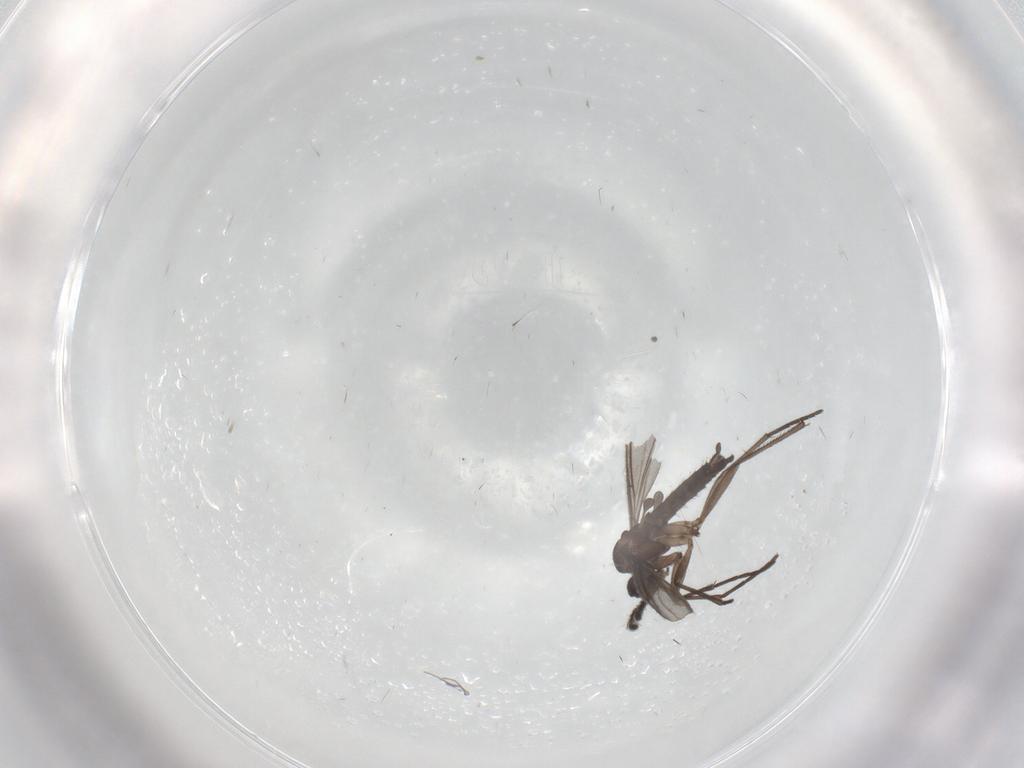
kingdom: Animalia
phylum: Arthropoda
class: Insecta
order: Diptera
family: Sciaridae
